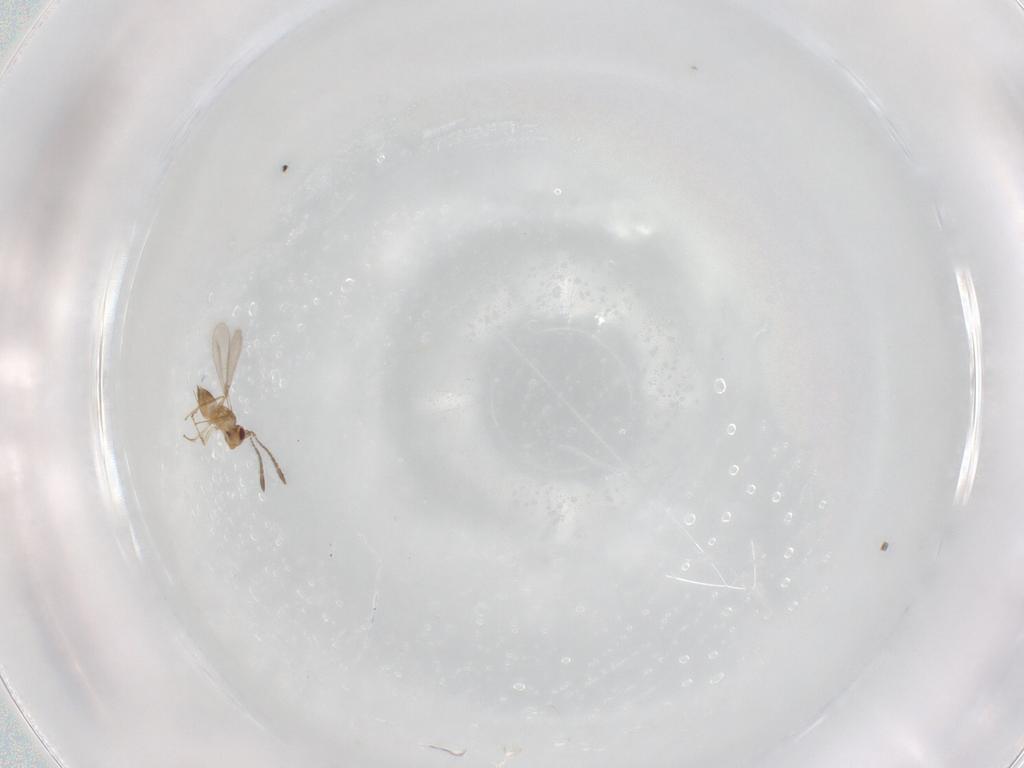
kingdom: Animalia
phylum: Arthropoda
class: Insecta
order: Hymenoptera
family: Mymaridae
